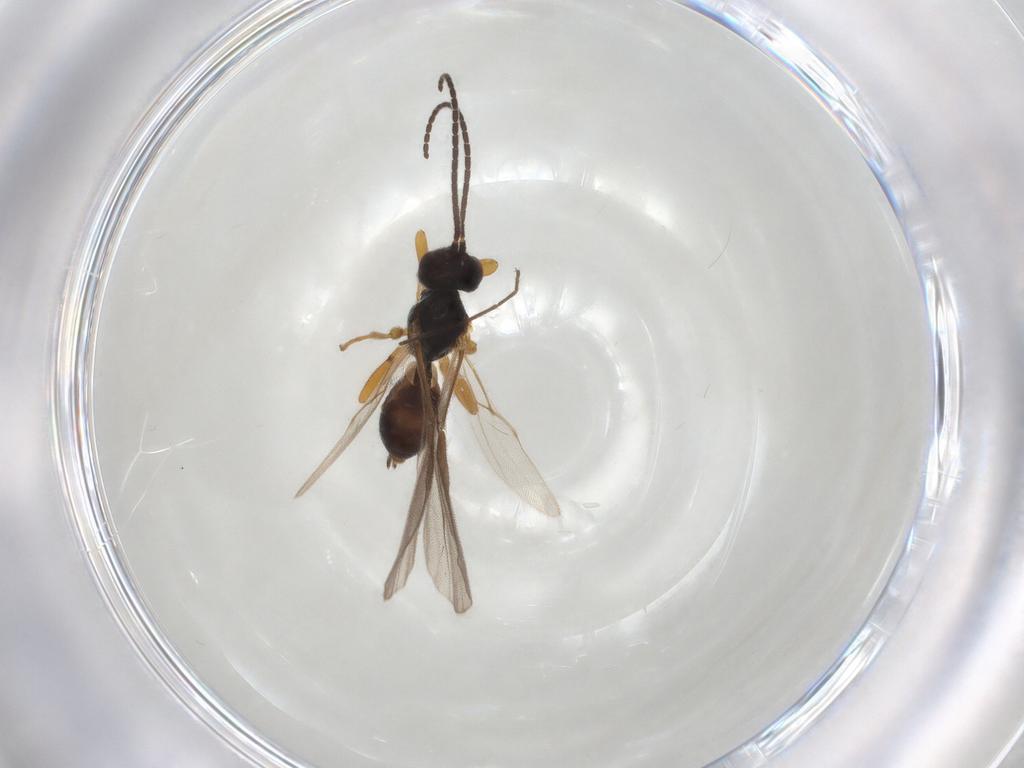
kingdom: Animalia
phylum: Arthropoda
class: Insecta
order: Hymenoptera
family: Braconidae
